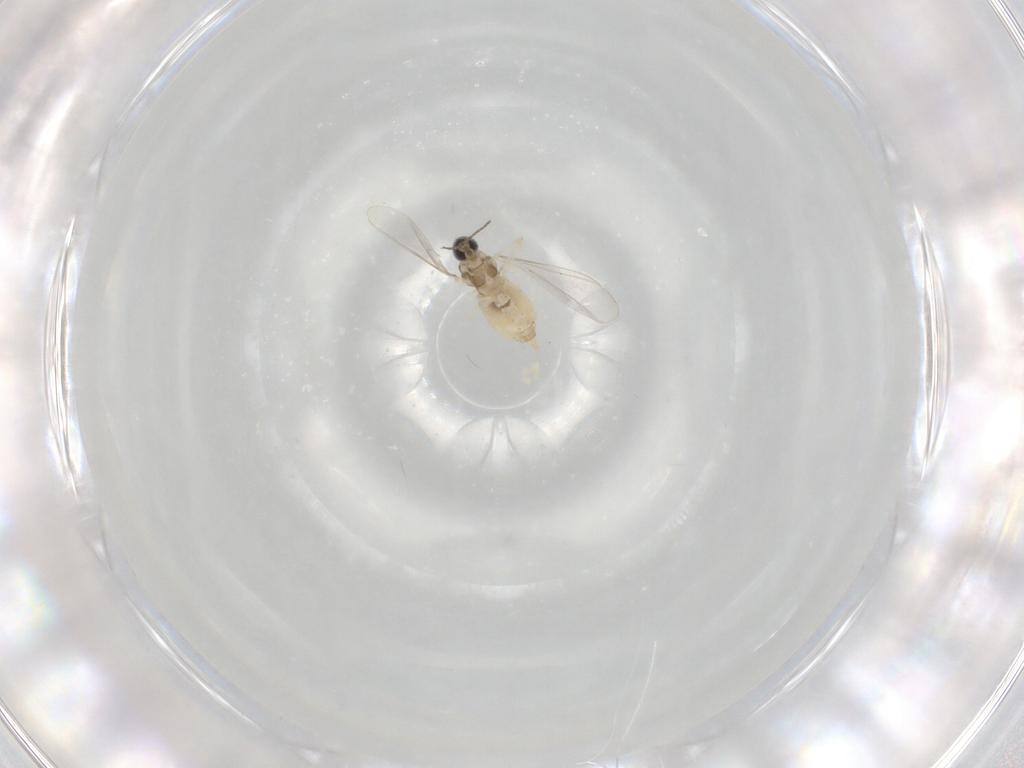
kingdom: Animalia
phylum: Arthropoda
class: Insecta
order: Diptera
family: Cecidomyiidae
